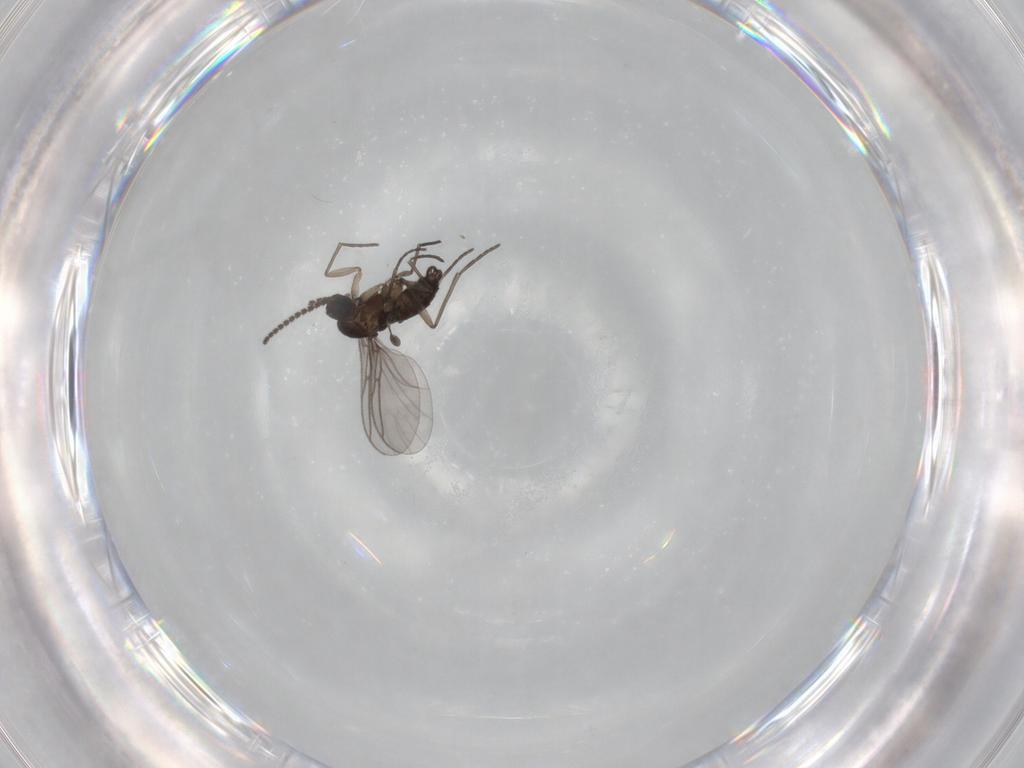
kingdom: Animalia
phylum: Arthropoda
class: Insecta
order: Diptera
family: Sciaridae
